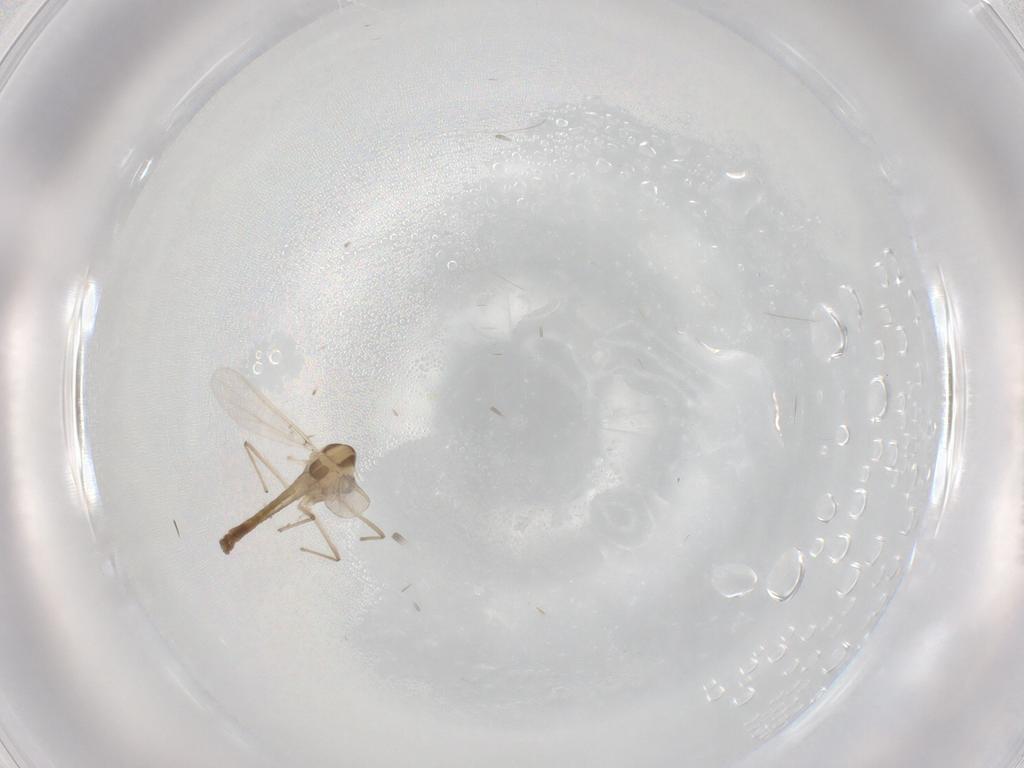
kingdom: Animalia
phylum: Arthropoda
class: Insecta
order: Diptera
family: Chironomidae
